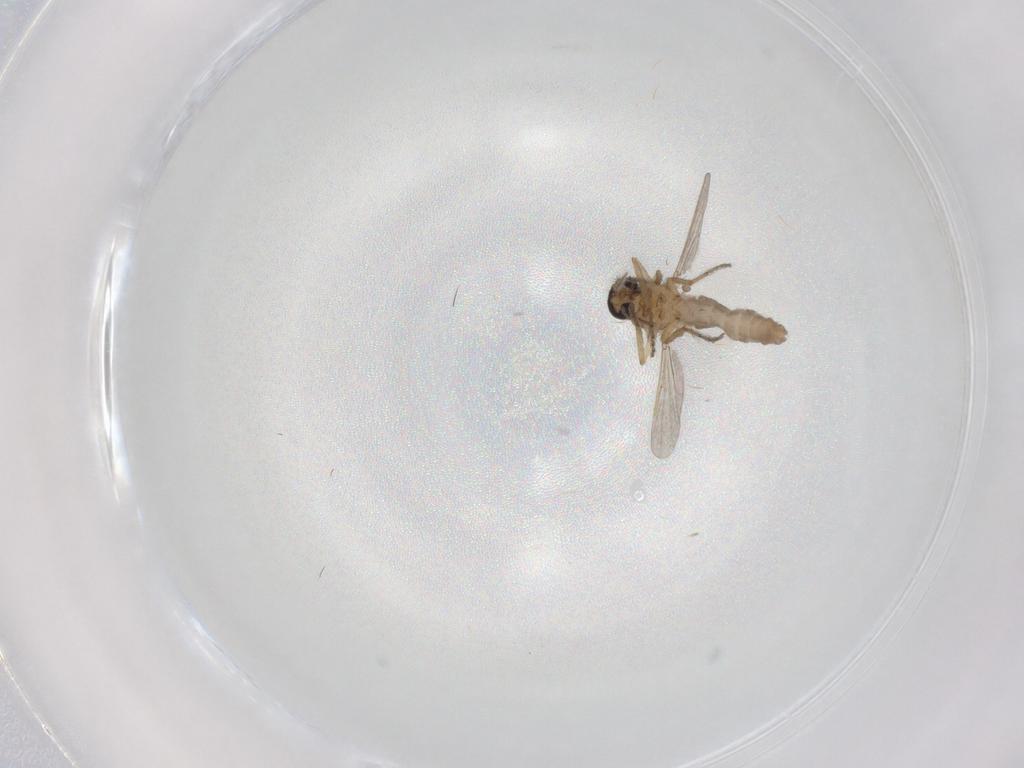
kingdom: Animalia
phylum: Arthropoda
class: Insecta
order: Diptera
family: Ceratopogonidae
